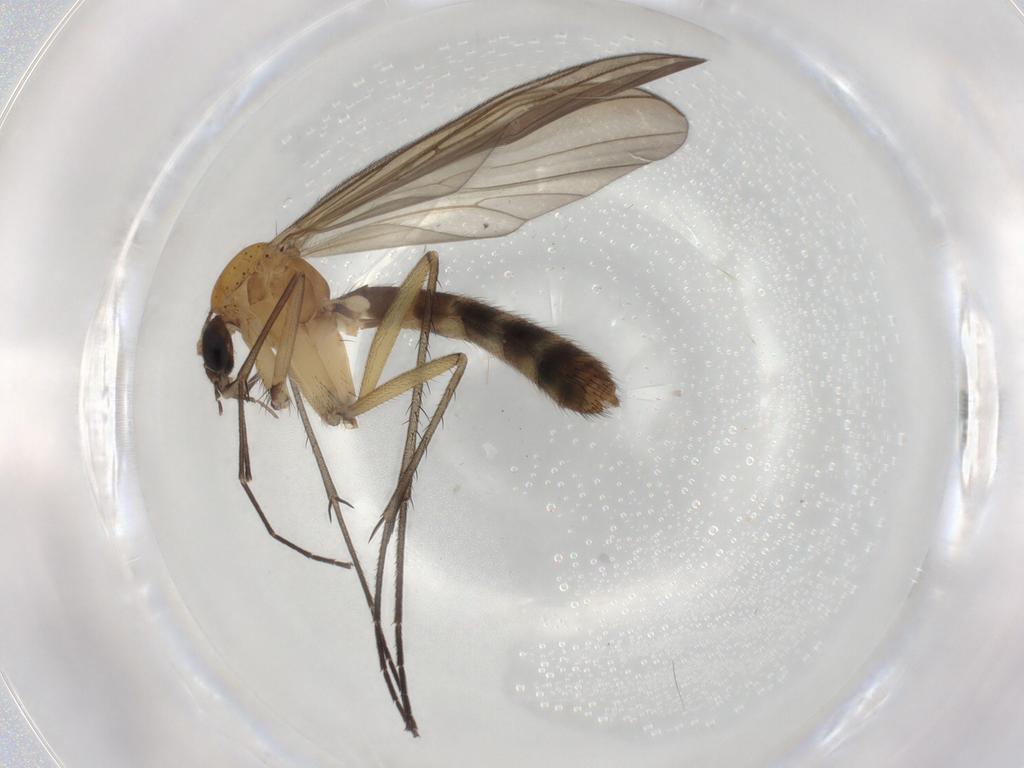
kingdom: Animalia
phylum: Arthropoda
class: Insecta
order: Diptera
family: Mycetophilidae
